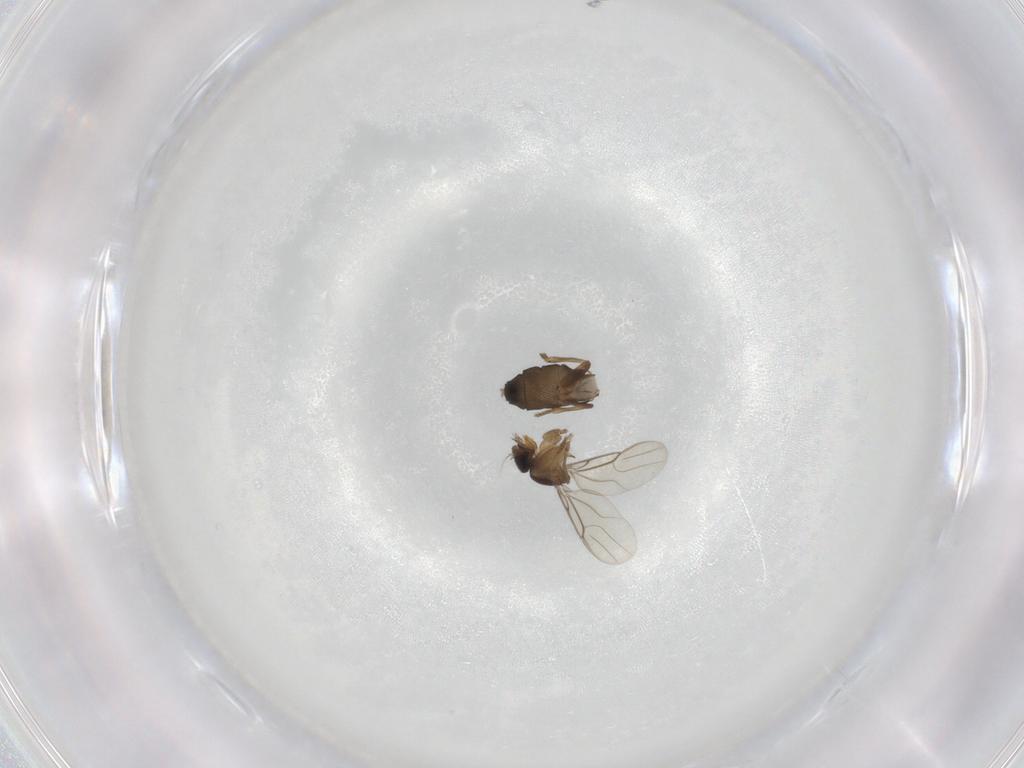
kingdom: Animalia
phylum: Arthropoda
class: Insecta
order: Diptera
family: Phoridae
